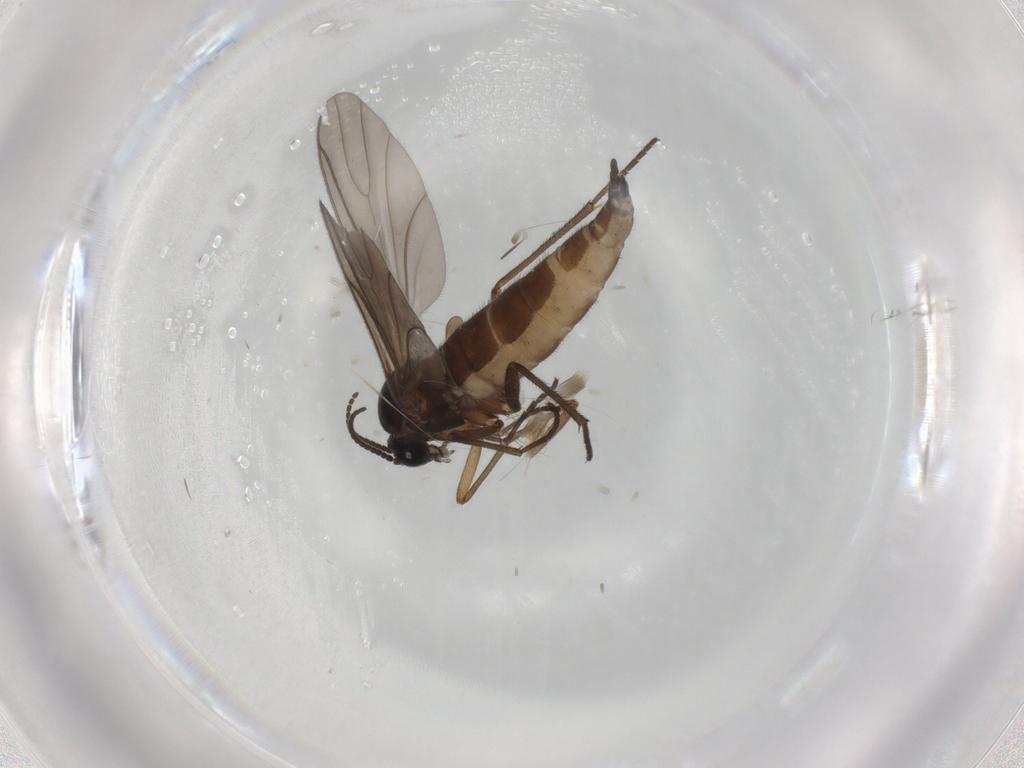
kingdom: Animalia
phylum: Arthropoda
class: Insecta
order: Diptera
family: Sciaridae
